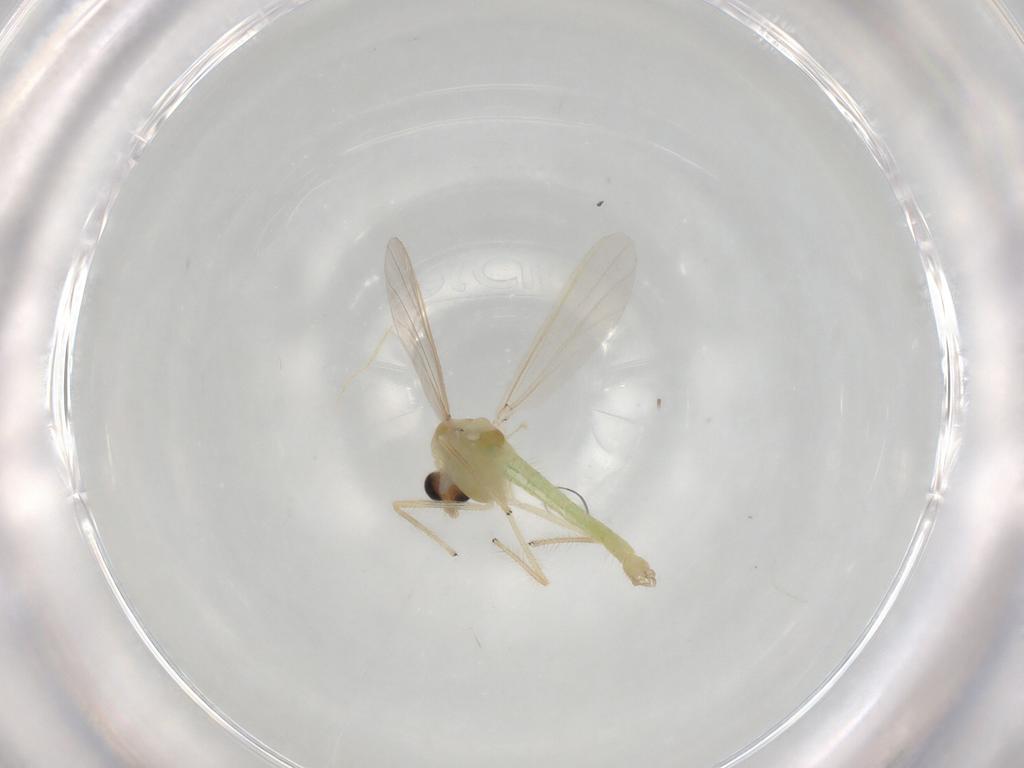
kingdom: Animalia
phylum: Arthropoda
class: Insecta
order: Diptera
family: Chironomidae
